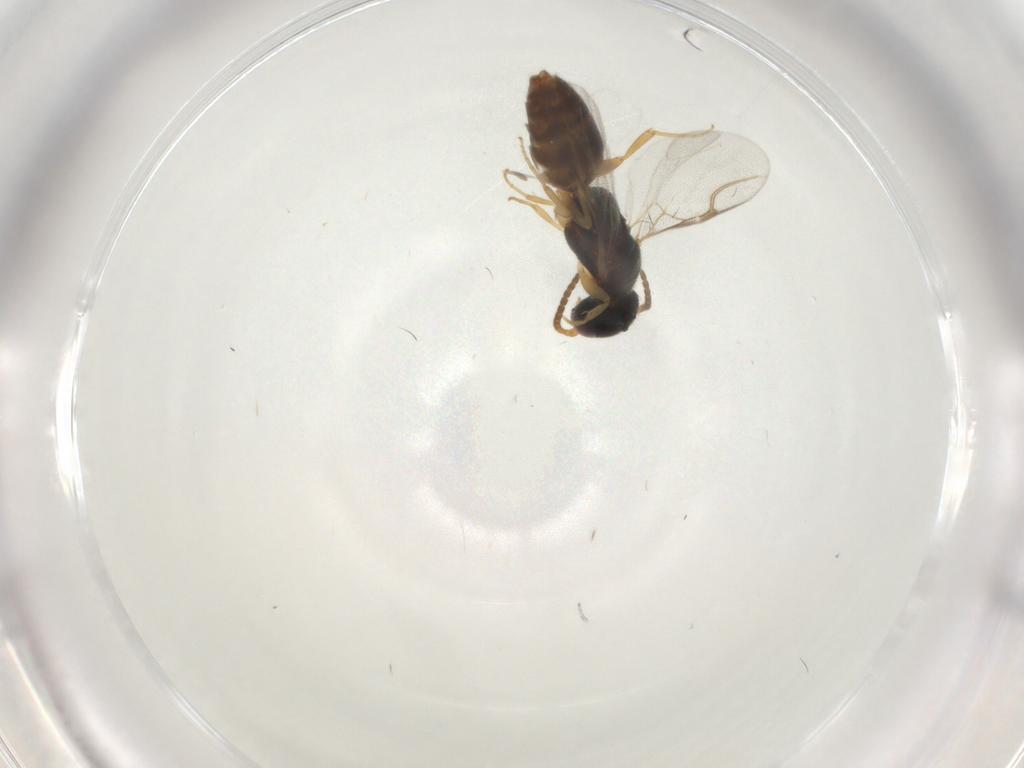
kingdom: Animalia
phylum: Arthropoda
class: Insecta
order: Hymenoptera
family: Bethylidae
